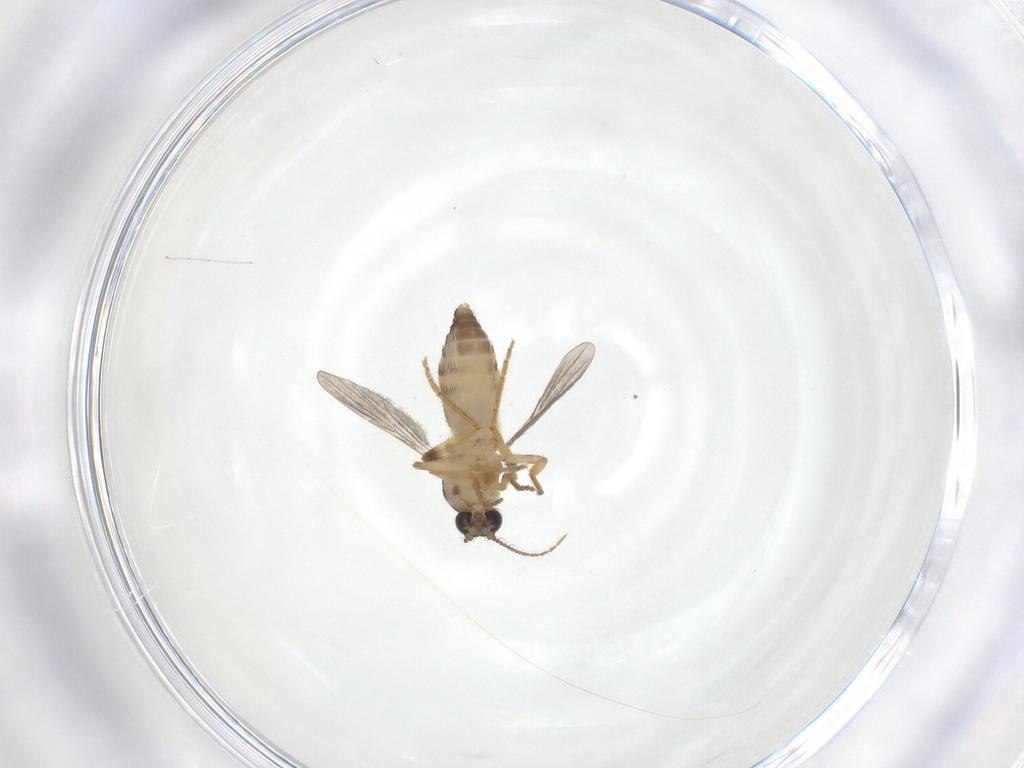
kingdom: Animalia
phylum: Arthropoda
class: Insecta
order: Diptera
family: Ceratopogonidae
